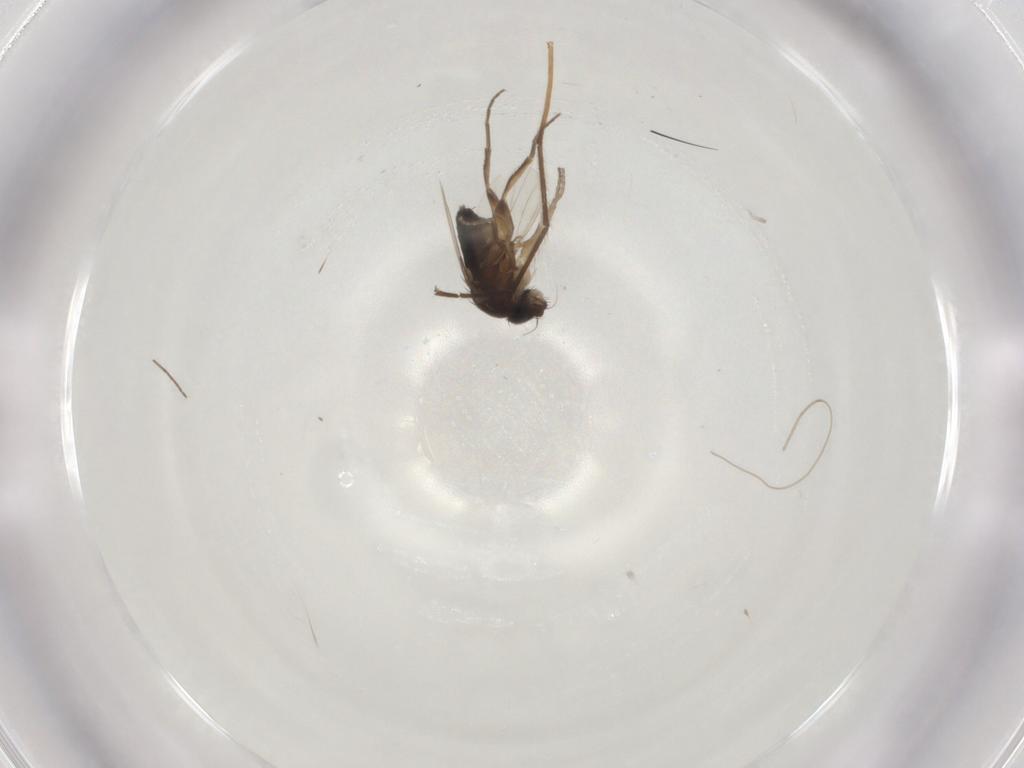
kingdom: Animalia
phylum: Arthropoda
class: Insecta
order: Diptera
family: Phoridae
